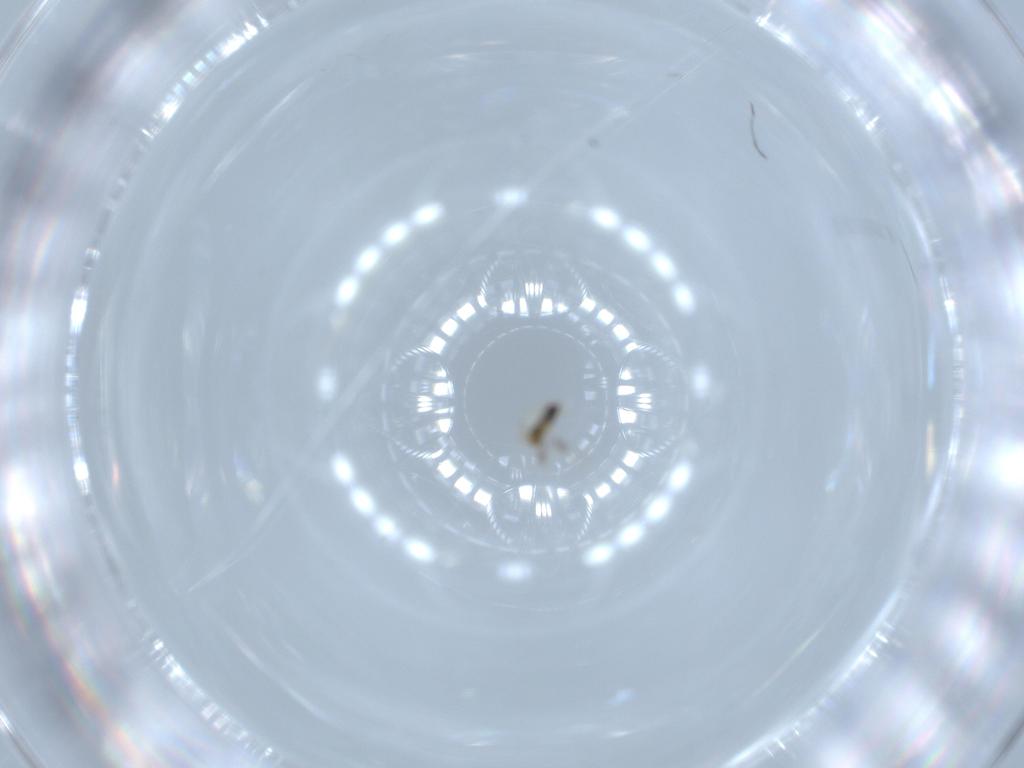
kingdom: Animalia
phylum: Arthropoda
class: Insecta
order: Hymenoptera
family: Aphelinidae
